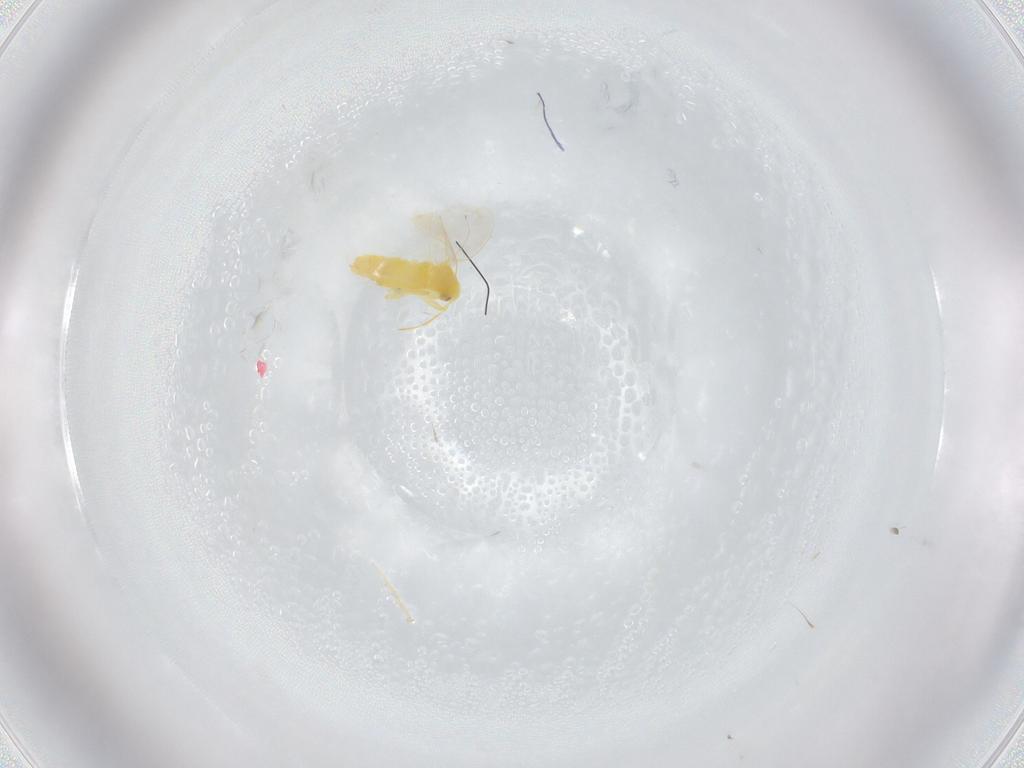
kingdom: Animalia
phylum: Arthropoda
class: Insecta
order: Hemiptera
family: Aleyrodidae
